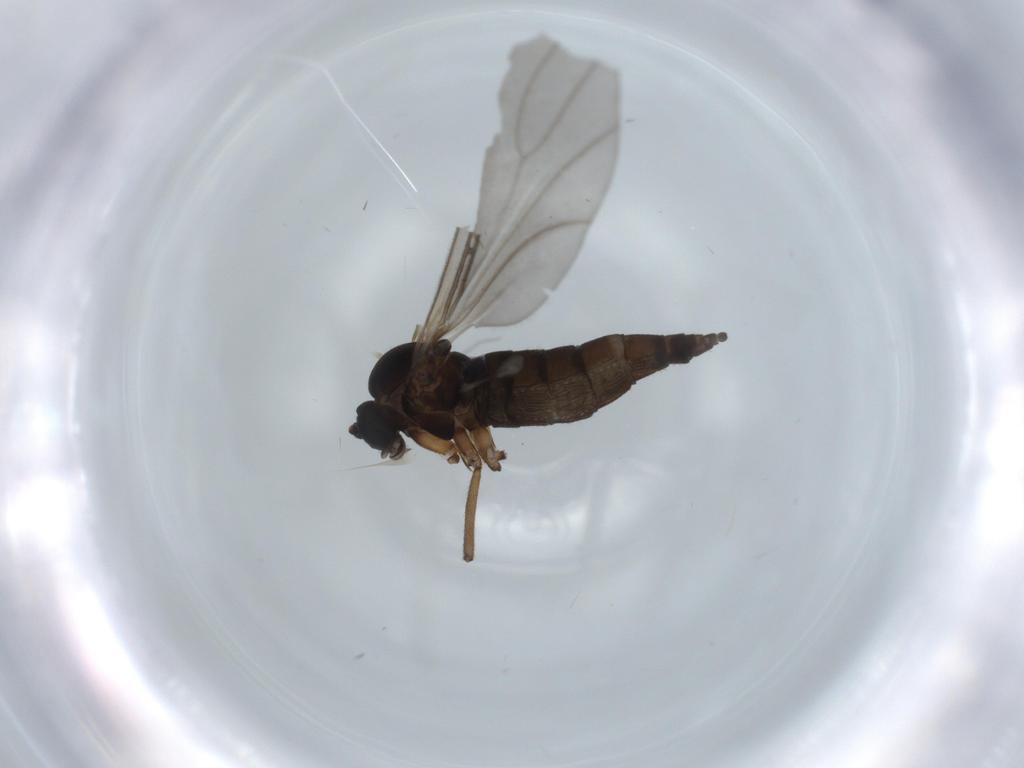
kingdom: Animalia
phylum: Arthropoda
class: Insecta
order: Diptera
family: Sciaridae
